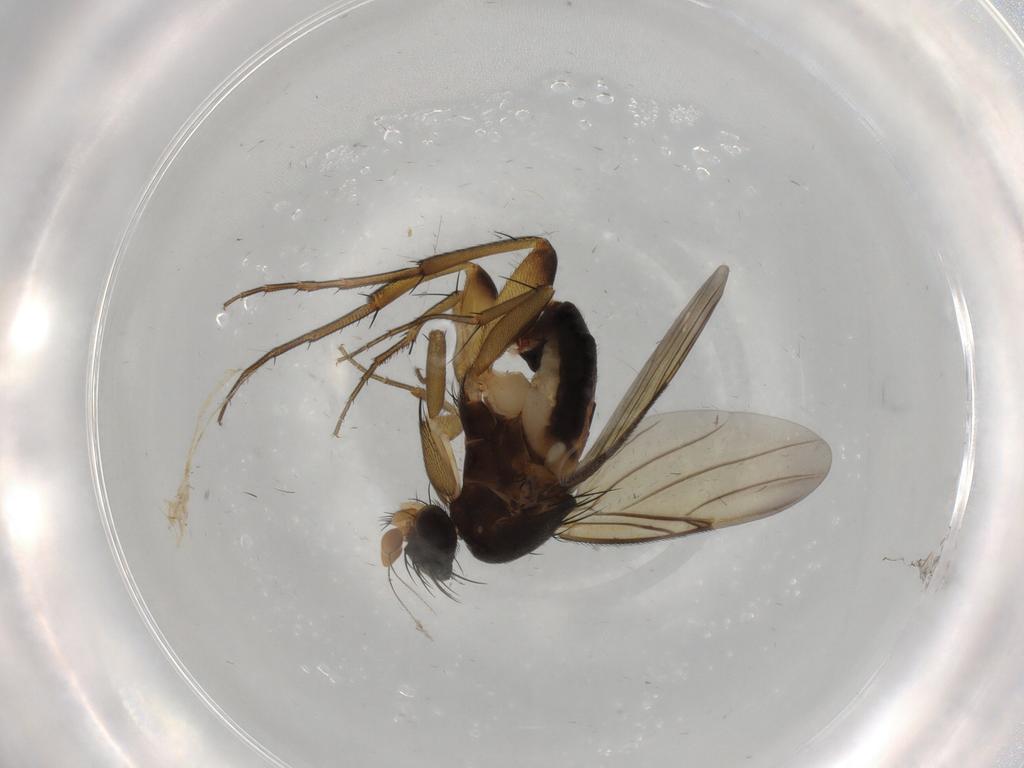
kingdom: Animalia
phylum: Arthropoda
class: Insecta
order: Diptera
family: Phoridae
